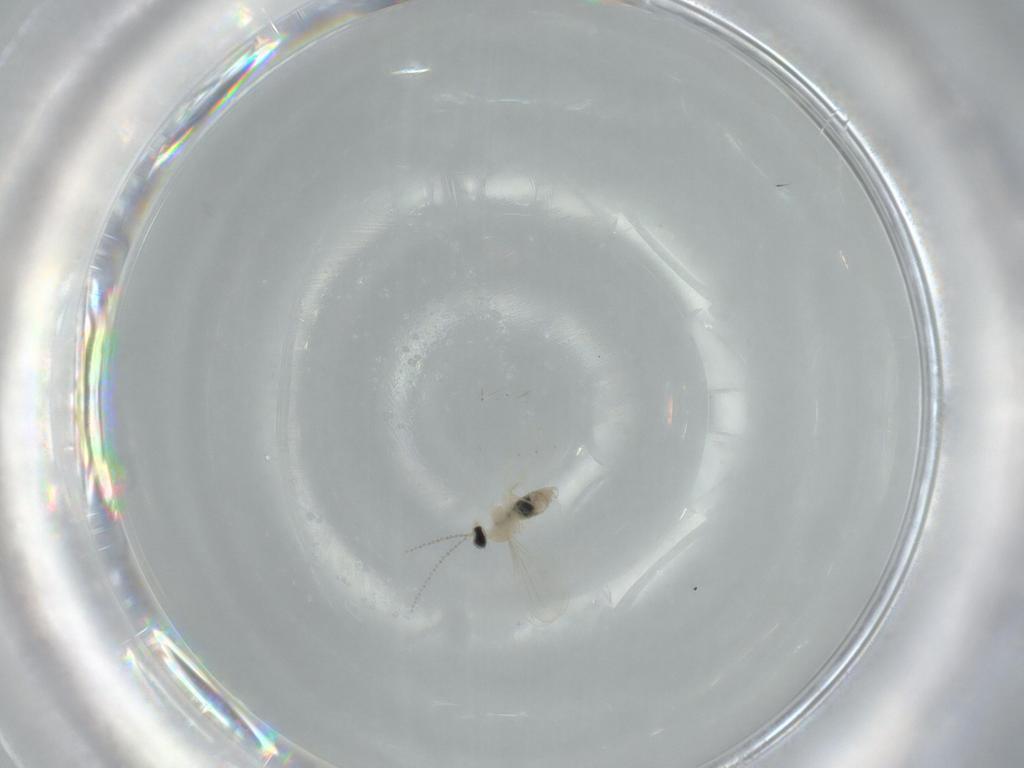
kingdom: Animalia
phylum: Arthropoda
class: Insecta
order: Diptera
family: Cecidomyiidae
